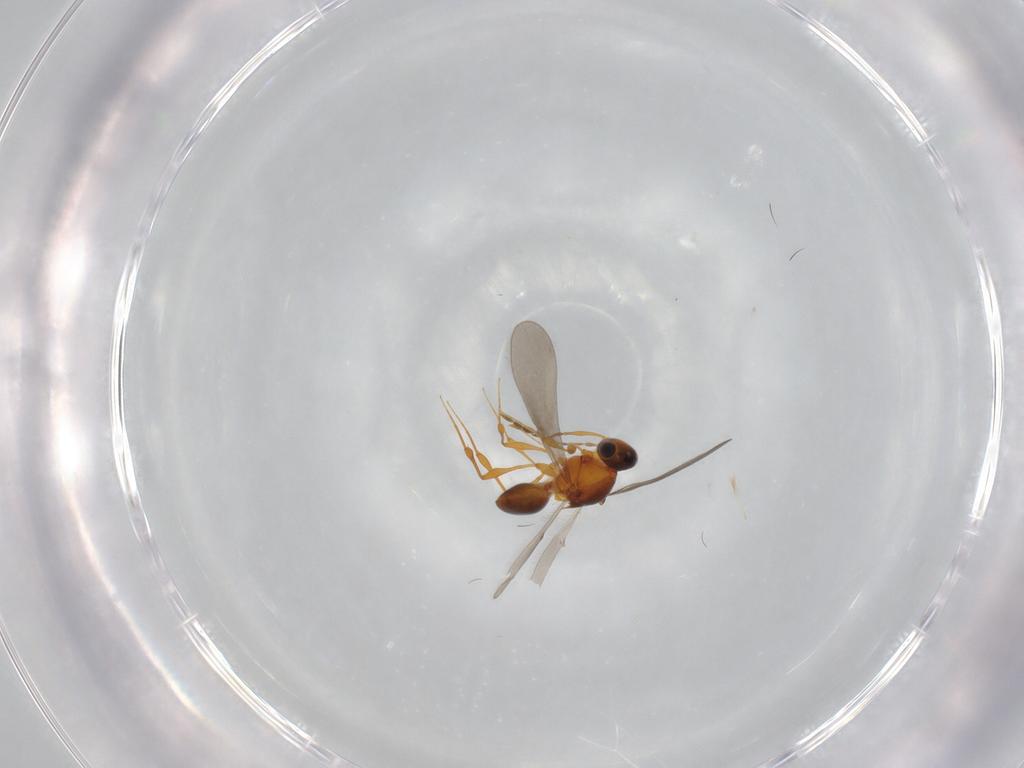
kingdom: Animalia
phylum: Arthropoda
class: Insecta
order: Hymenoptera
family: Platygastridae
